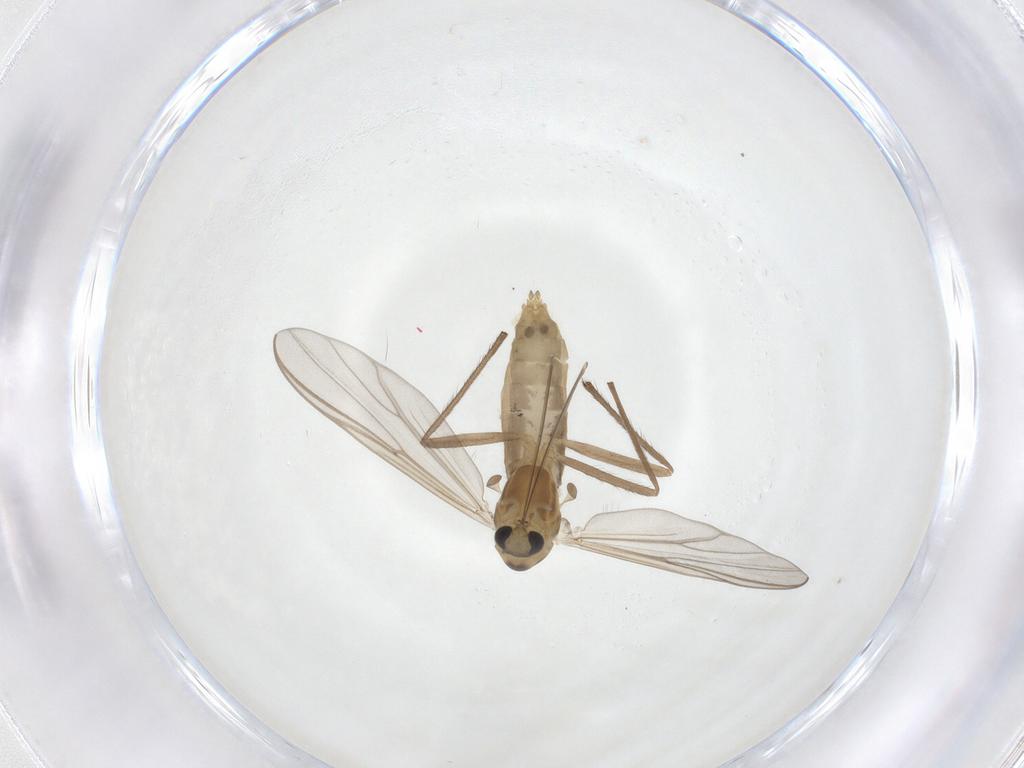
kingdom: Animalia
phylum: Arthropoda
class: Insecta
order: Diptera
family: Chironomidae
